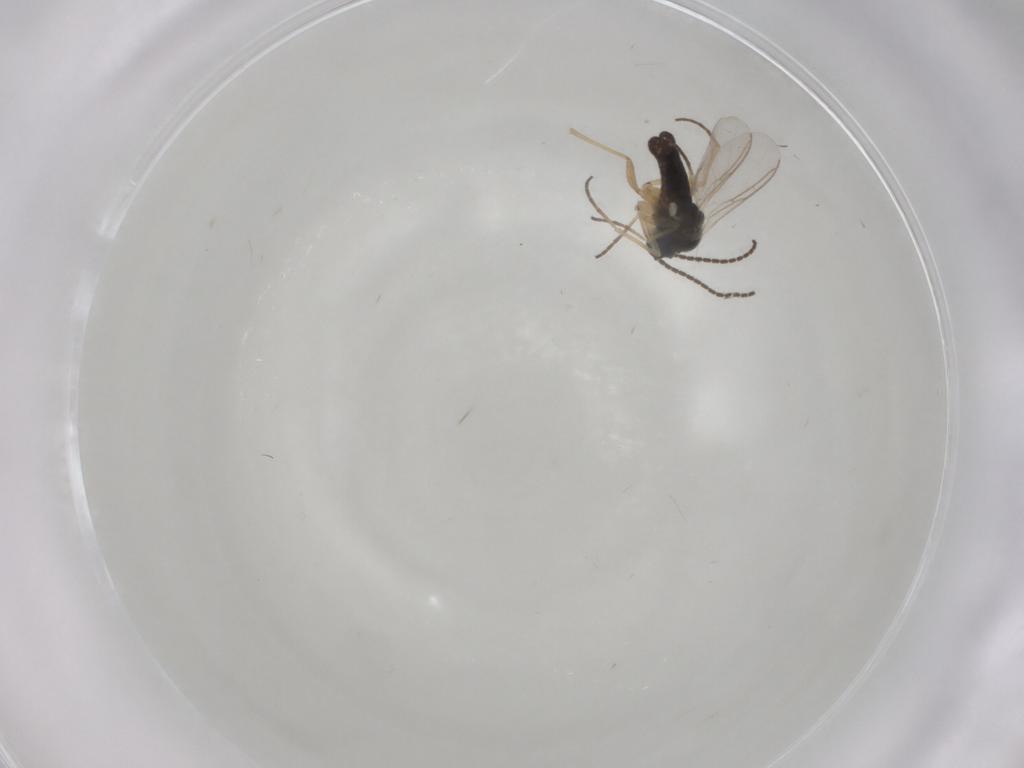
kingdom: Animalia
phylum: Arthropoda
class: Insecta
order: Diptera
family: Sciaridae
